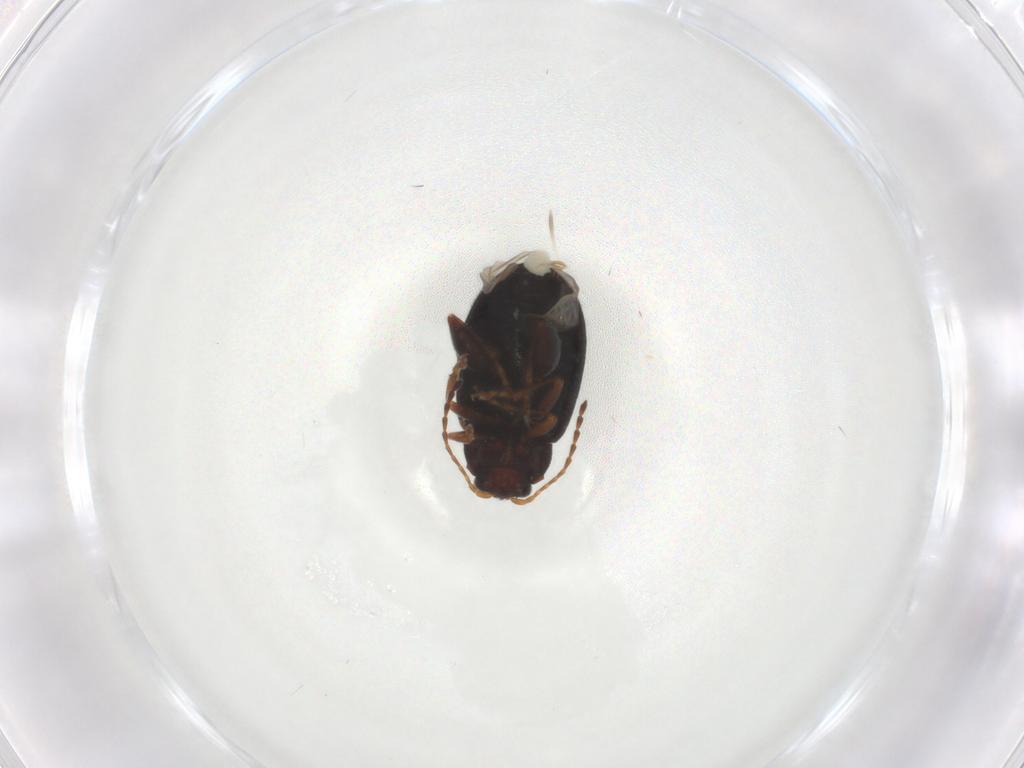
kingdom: Animalia
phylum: Arthropoda
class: Insecta
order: Coleoptera
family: Chrysomelidae
